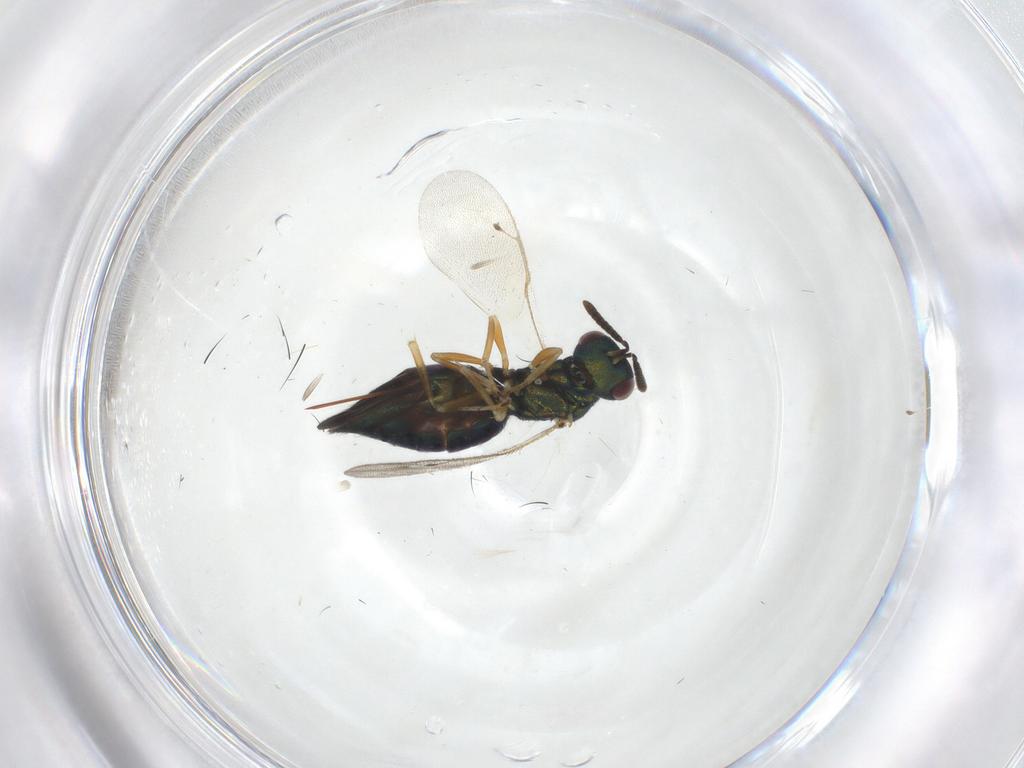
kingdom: Animalia
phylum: Arthropoda
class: Insecta
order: Hymenoptera
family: Pteromalidae
